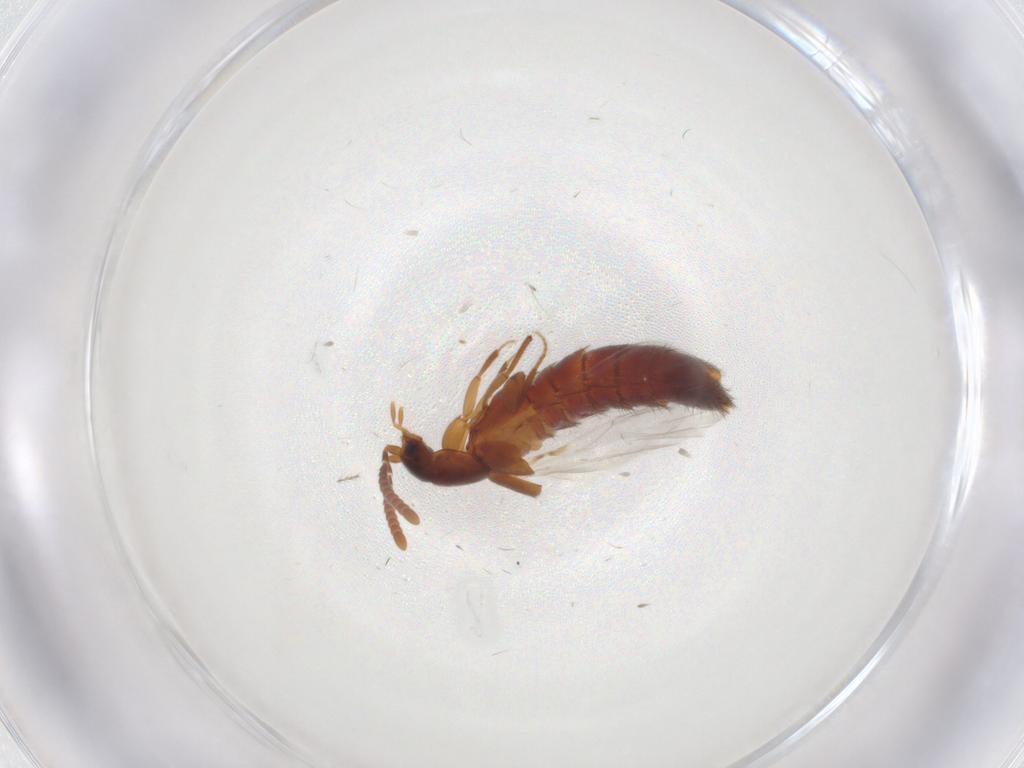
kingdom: Animalia
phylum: Arthropoda
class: Insecta
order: Coleoptera
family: Staphylinidae
